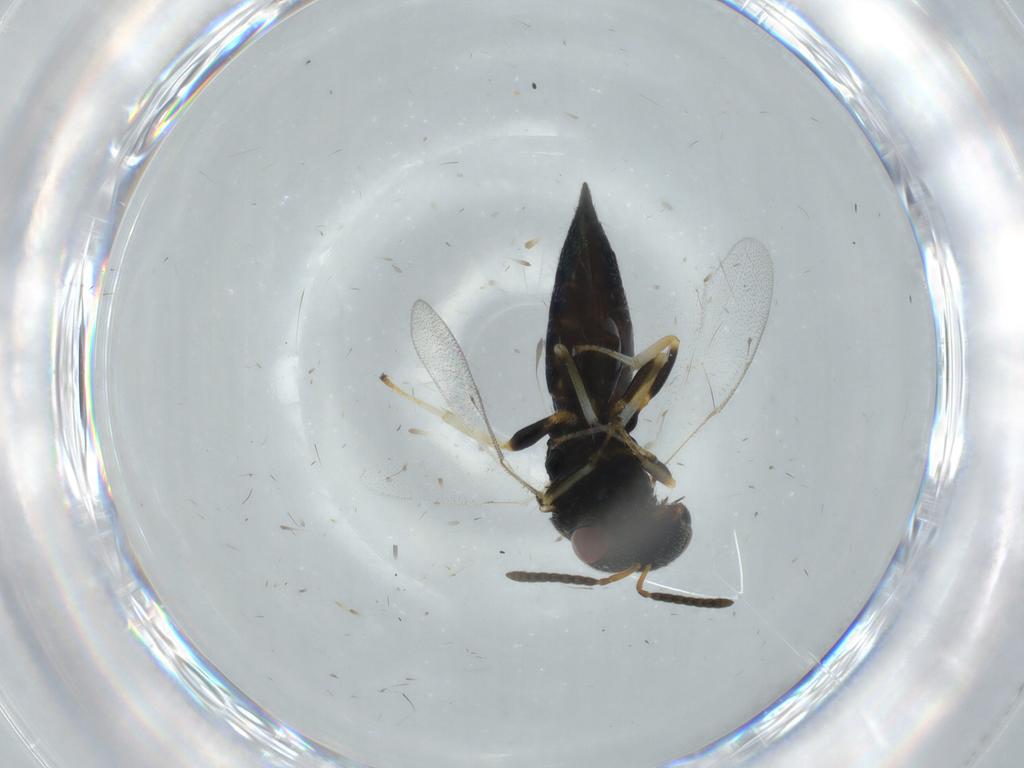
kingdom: Animalia
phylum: Arthropoda
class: Insecta
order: Hymenoptera
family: Pteromalidae
